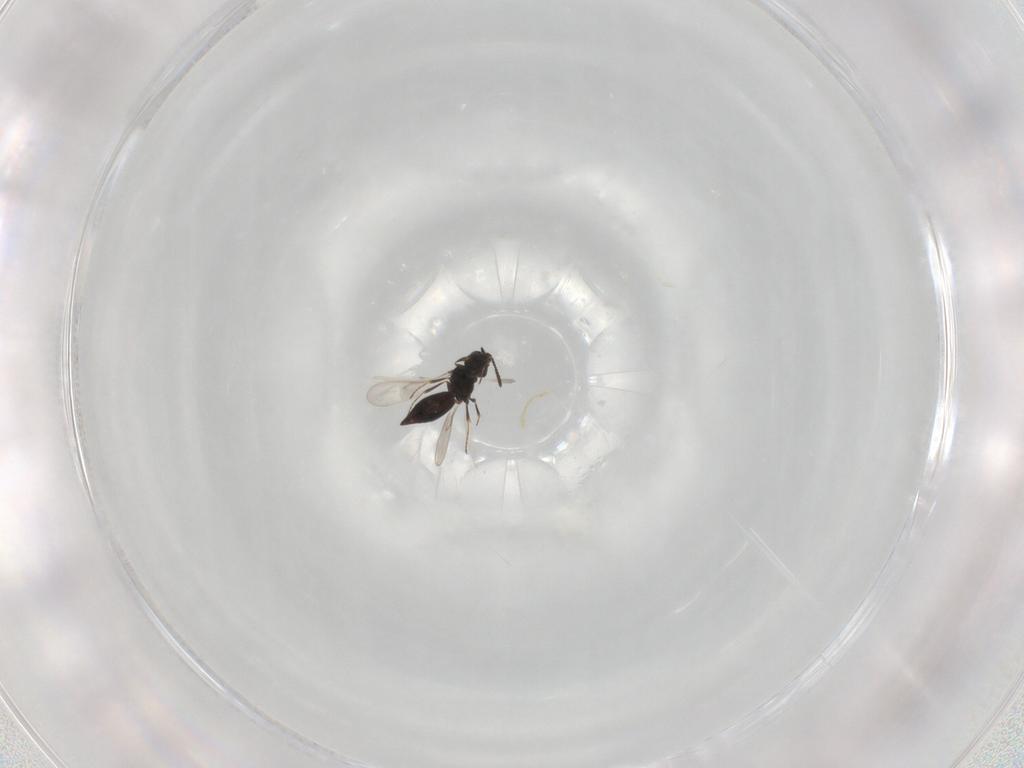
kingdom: Animalia
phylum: Arthropoda
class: Insecta
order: Hymenoptera
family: Scelionidae
